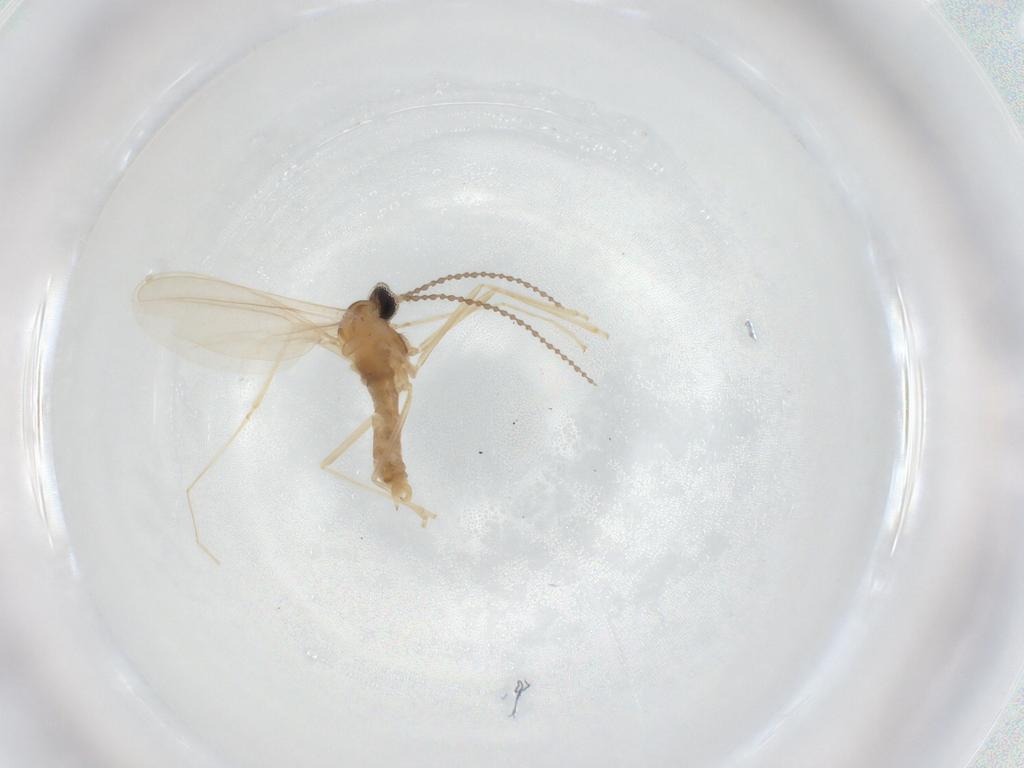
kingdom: Animalia
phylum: Arthropoda
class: Insecta
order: Diptera
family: Cecidomyiidae
